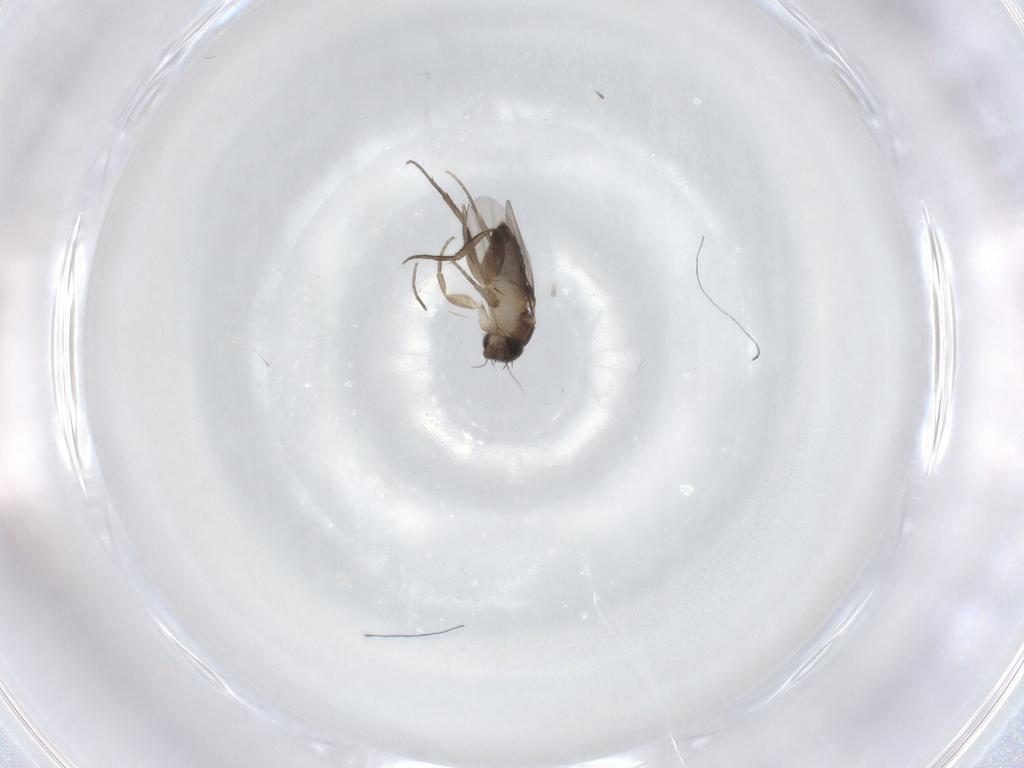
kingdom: Animalia
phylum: Arthropoda
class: Insecta
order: Diptera
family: Phoridae
